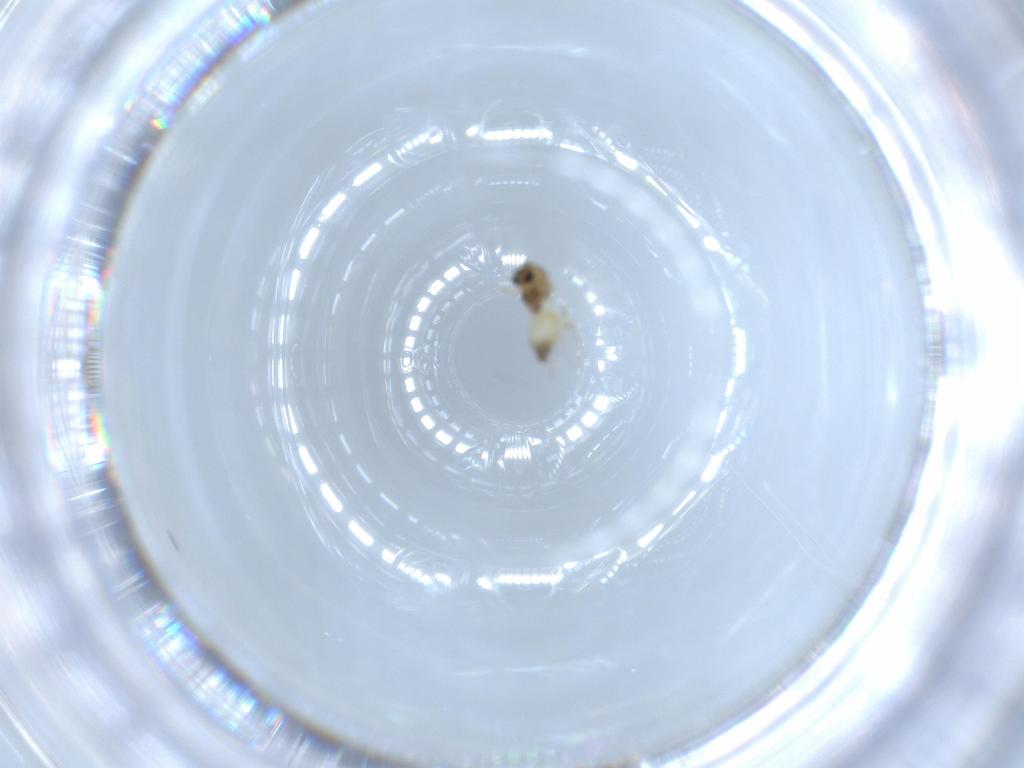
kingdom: Animalia
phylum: Arthropoda
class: Insecta
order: Diptera
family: Chironomidae
